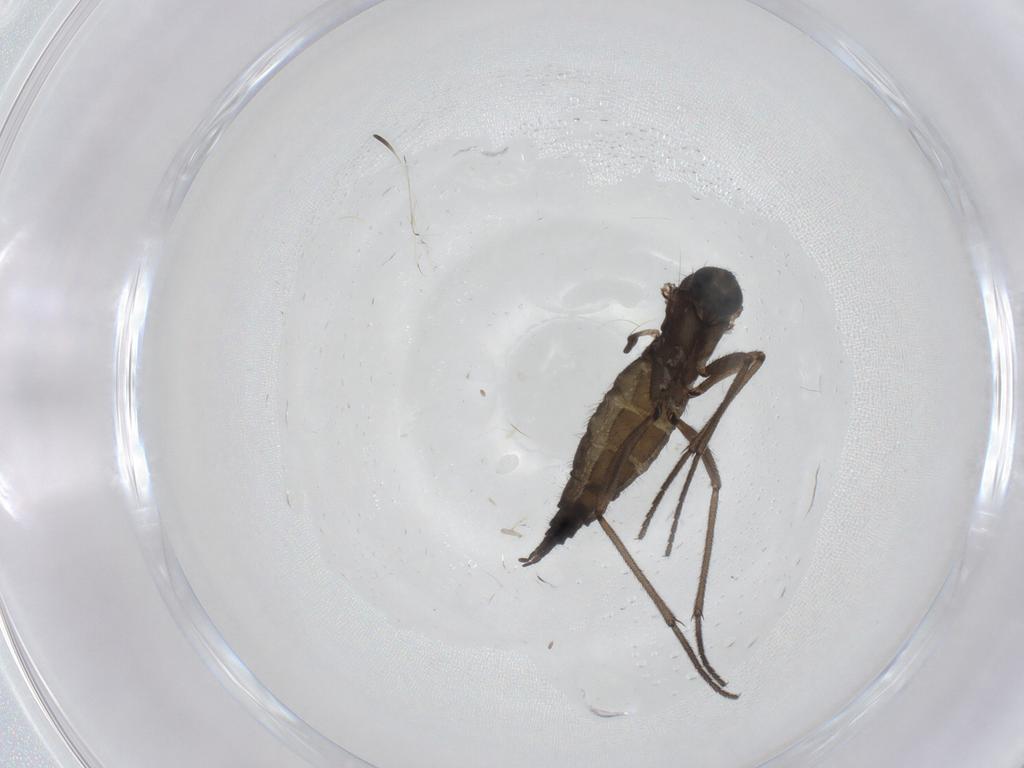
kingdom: Animalia
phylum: Arthropoda
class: Insecta
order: Diptera
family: Sciaridae
